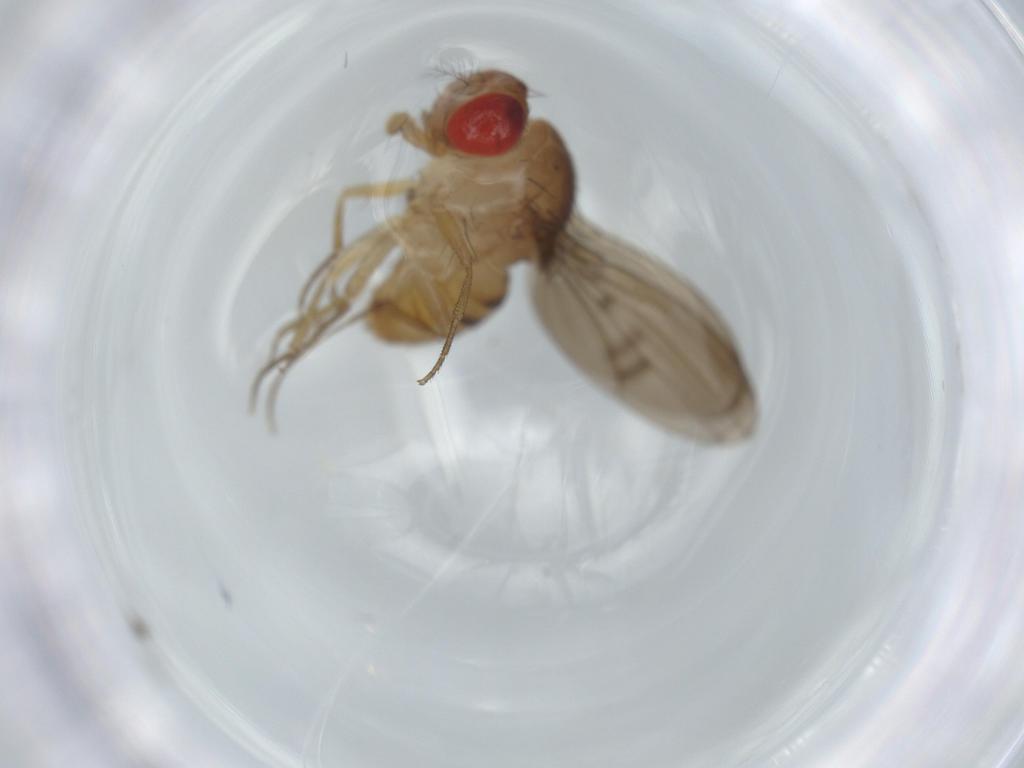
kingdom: Animalia
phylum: Arthropoda
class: Insecta
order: Diptera
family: Drosophilidae
